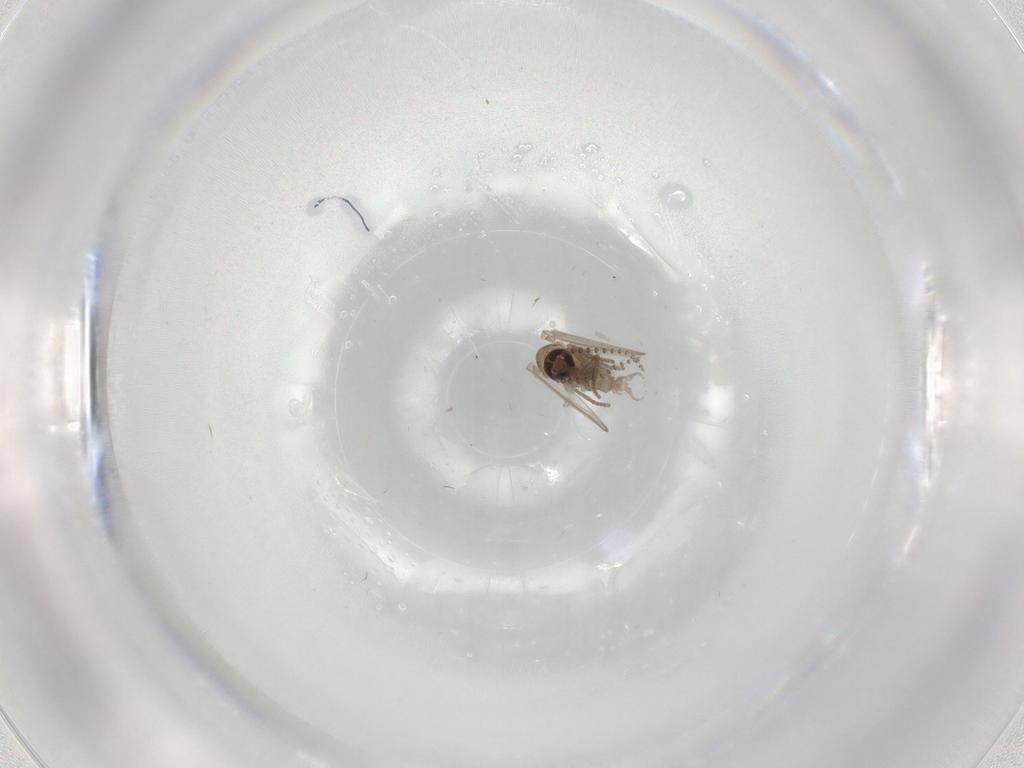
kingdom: Animalia
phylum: Arthropoda
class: Insecta
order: Diptera
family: Psychodidae
